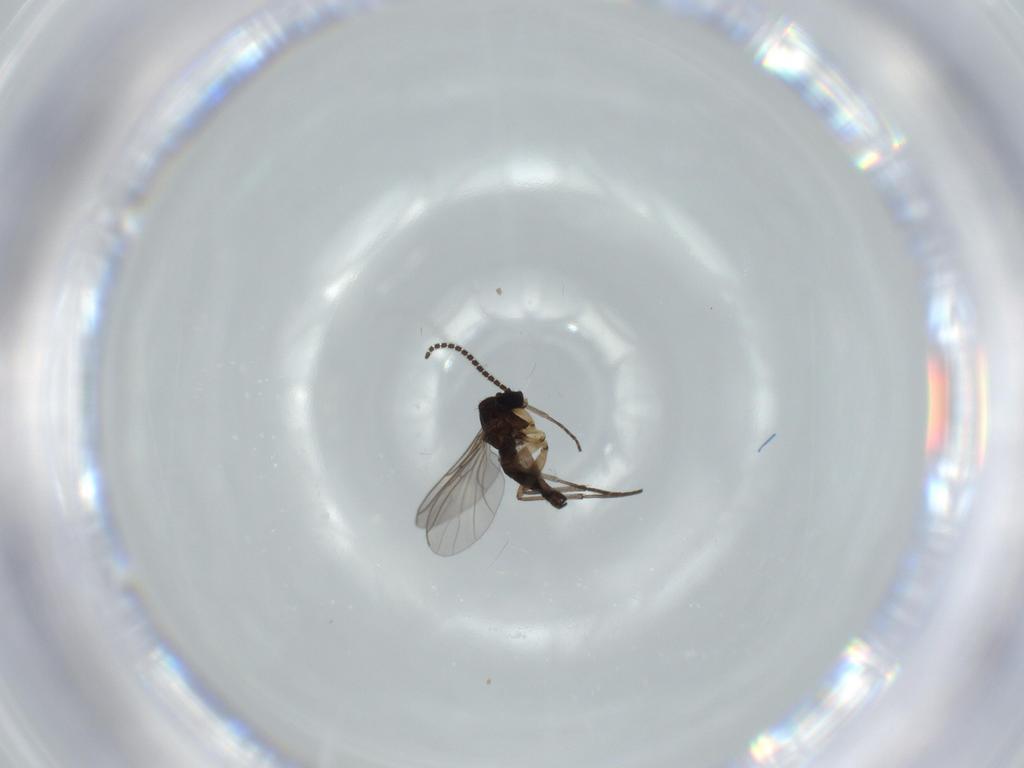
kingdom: Animalia
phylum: Arthropoda
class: Insecta
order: Diptera
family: Sciaridae
